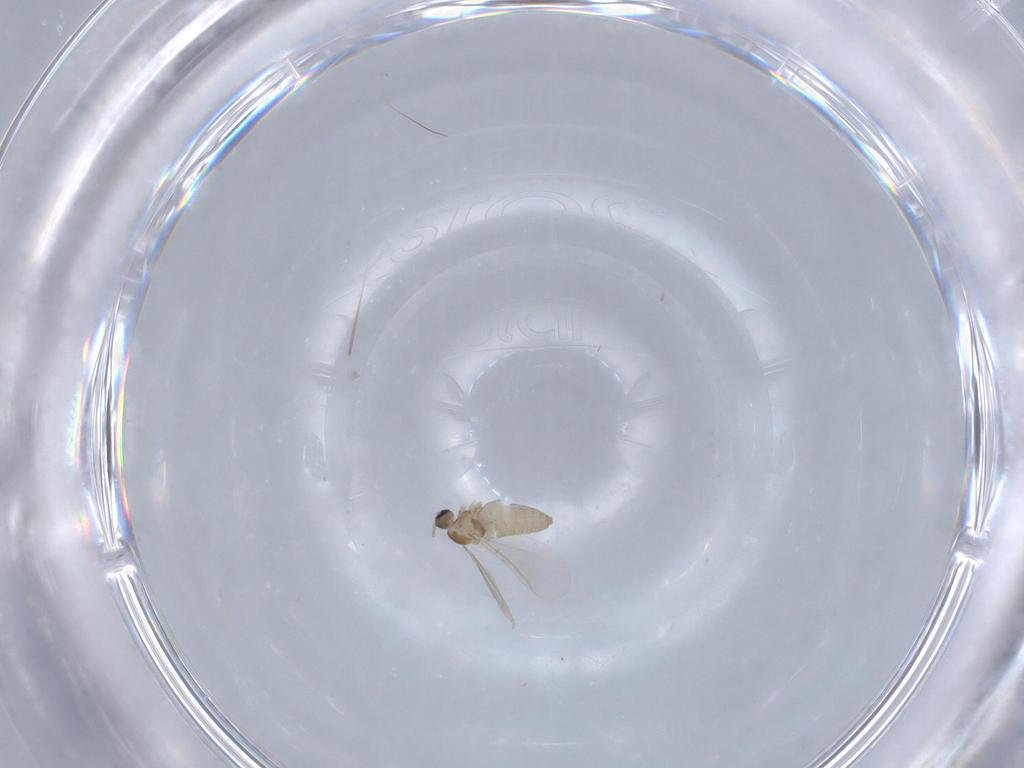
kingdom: Animalia
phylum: Arthropoda
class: Insecta
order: Diptera
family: Cecidomyiidae
